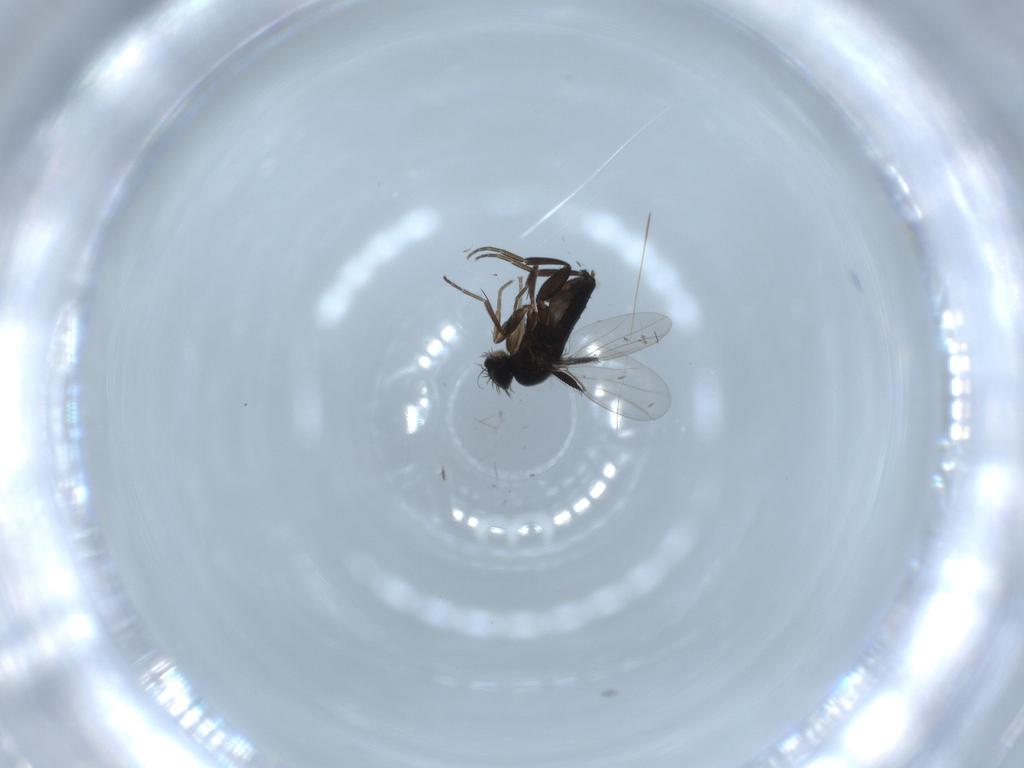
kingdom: Animalia
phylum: Arthropoda
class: Insecta
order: Diptera
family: Phoridae
